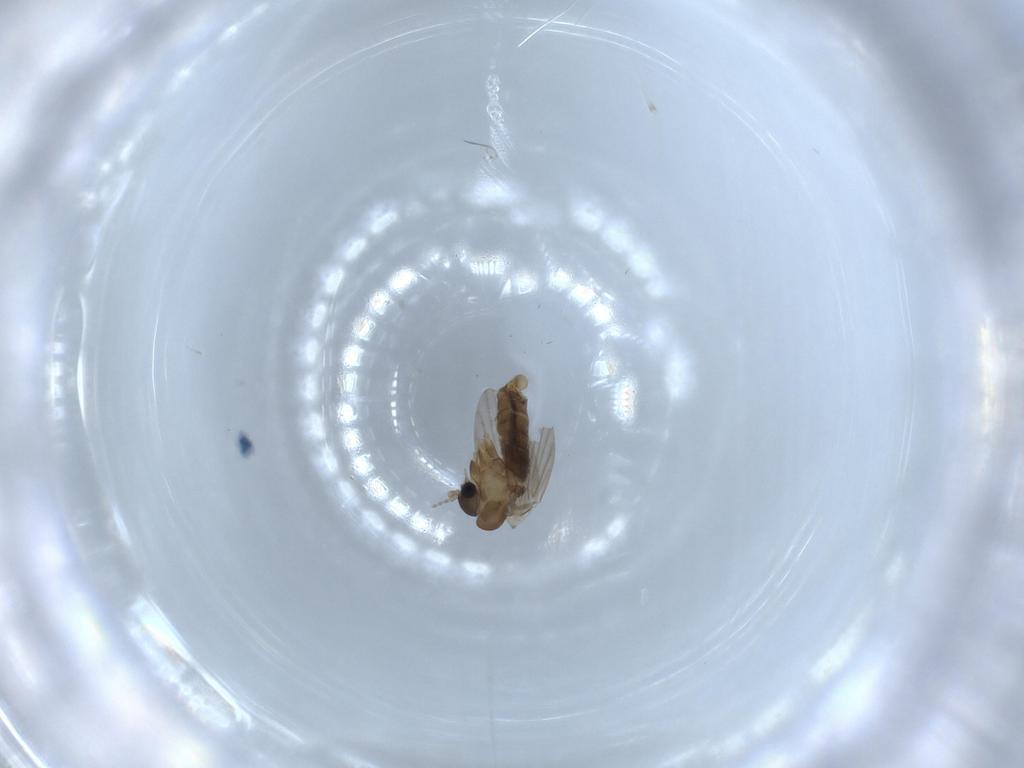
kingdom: Animalia
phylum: Arthropoda
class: Insecta
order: Diptera
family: Psychodidae
